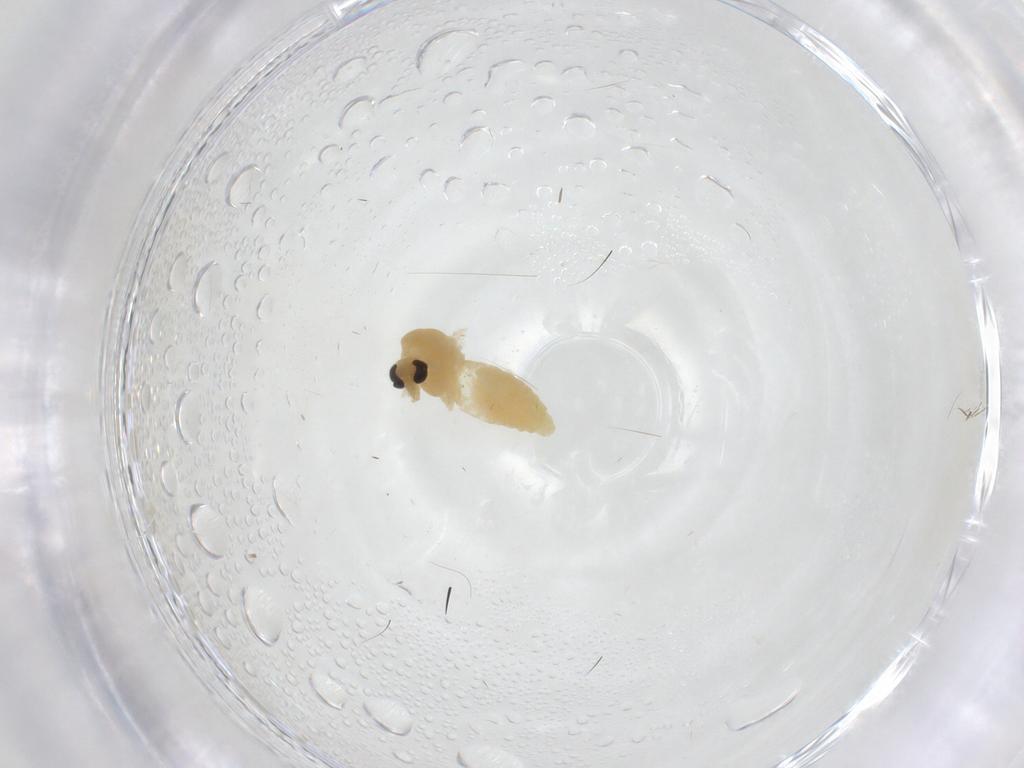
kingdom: Animalia
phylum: Arthropoda
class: Insecta
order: Diptera
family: Chironomidae
